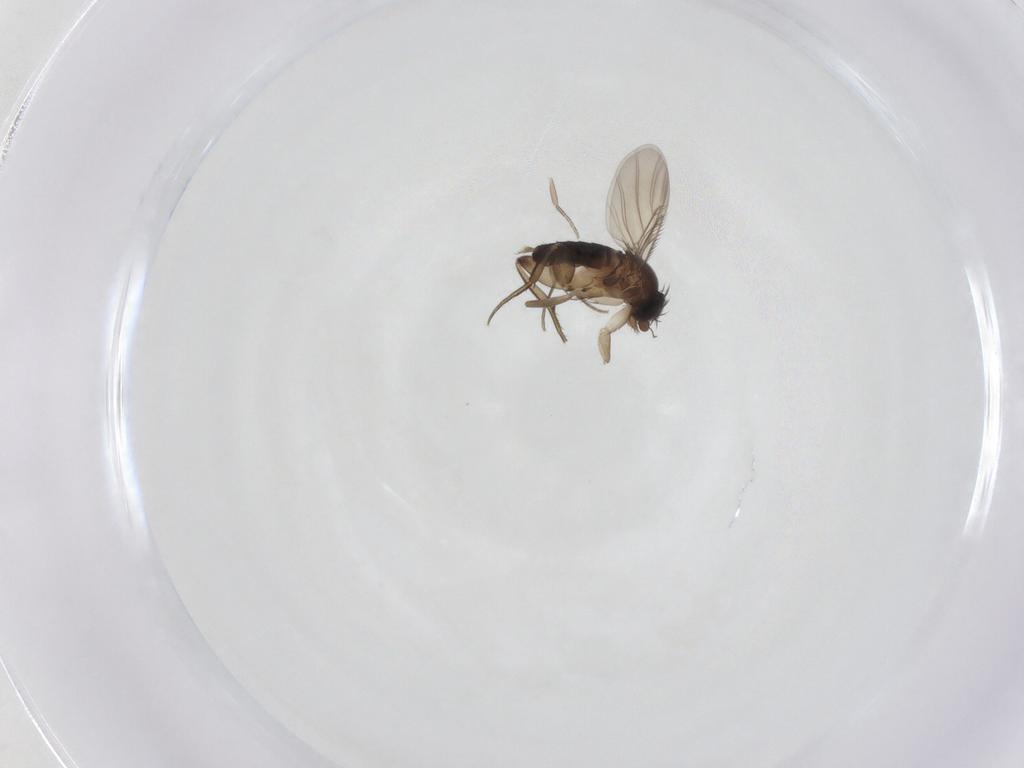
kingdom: Animalia
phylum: Arthropoda
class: Insecta
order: Diptera
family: Phoridae
